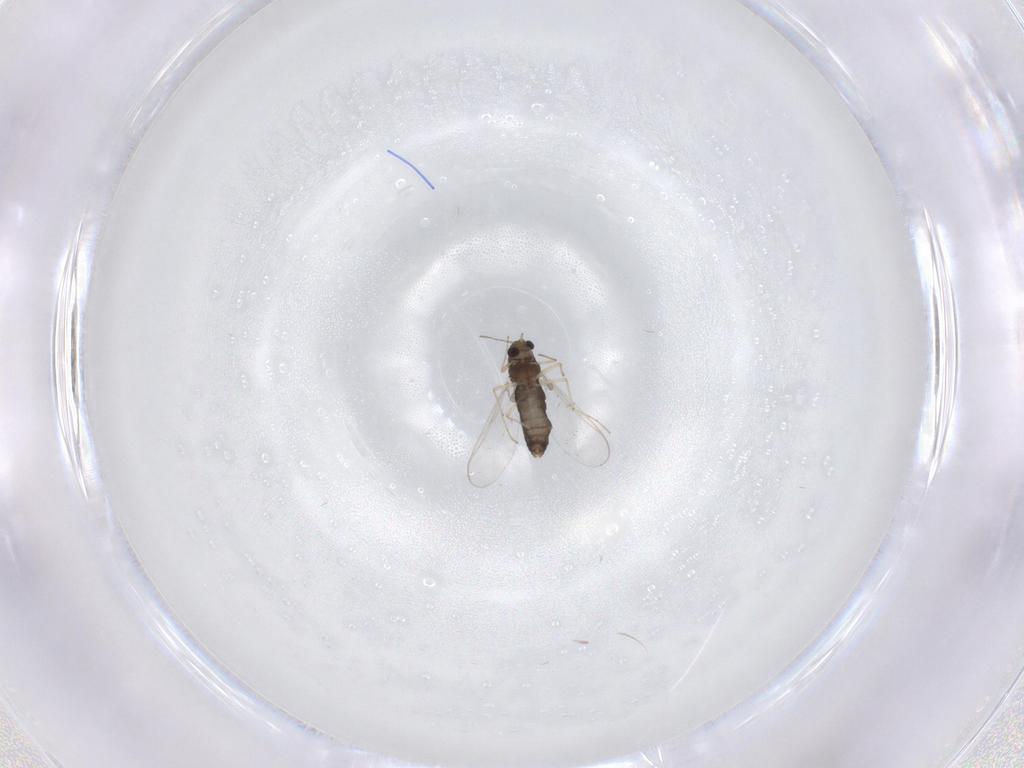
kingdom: Animalia
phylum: Arthropoda
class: Insecta
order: Diptera
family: Chironomidae
